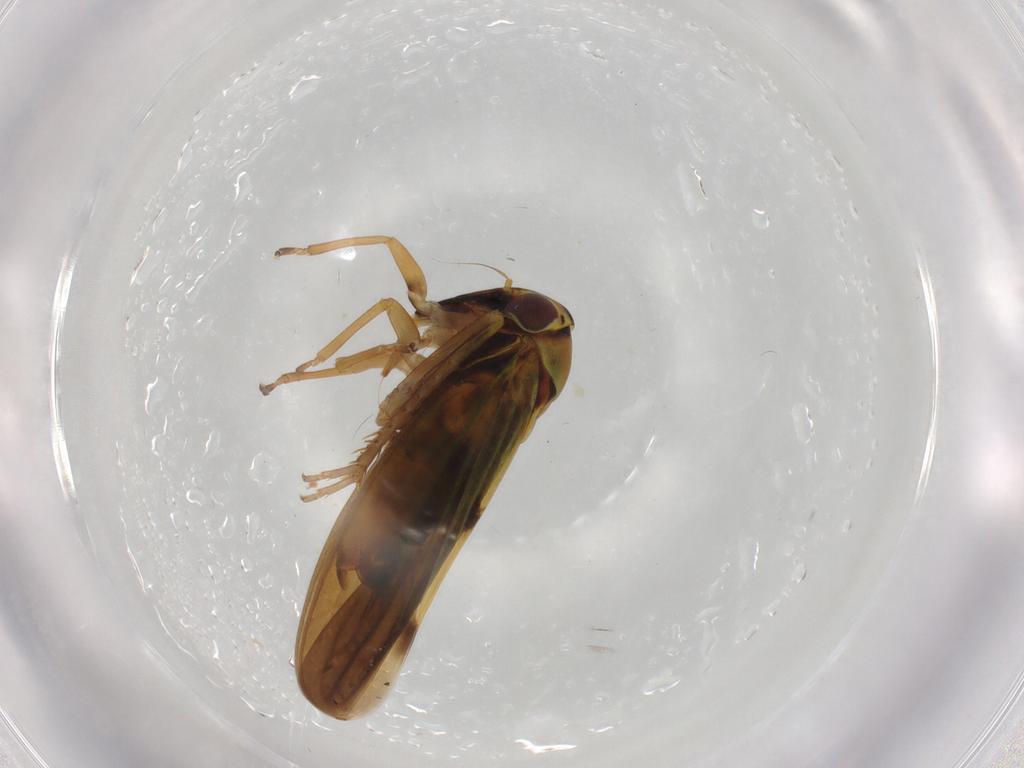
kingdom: Animalia
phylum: Arthropoda
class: Insecta
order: Hemiptera
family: Cicadellidae
